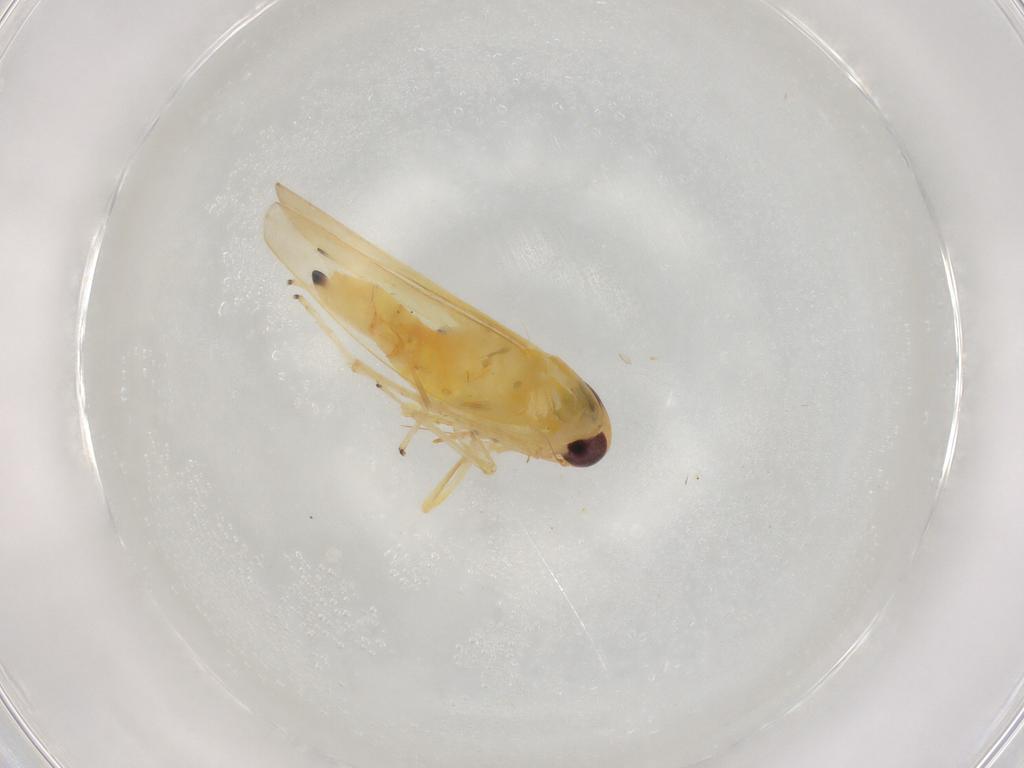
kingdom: Animalia
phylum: Arthropoda
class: Insecta
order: Hemiptera
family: Cicadellidae
